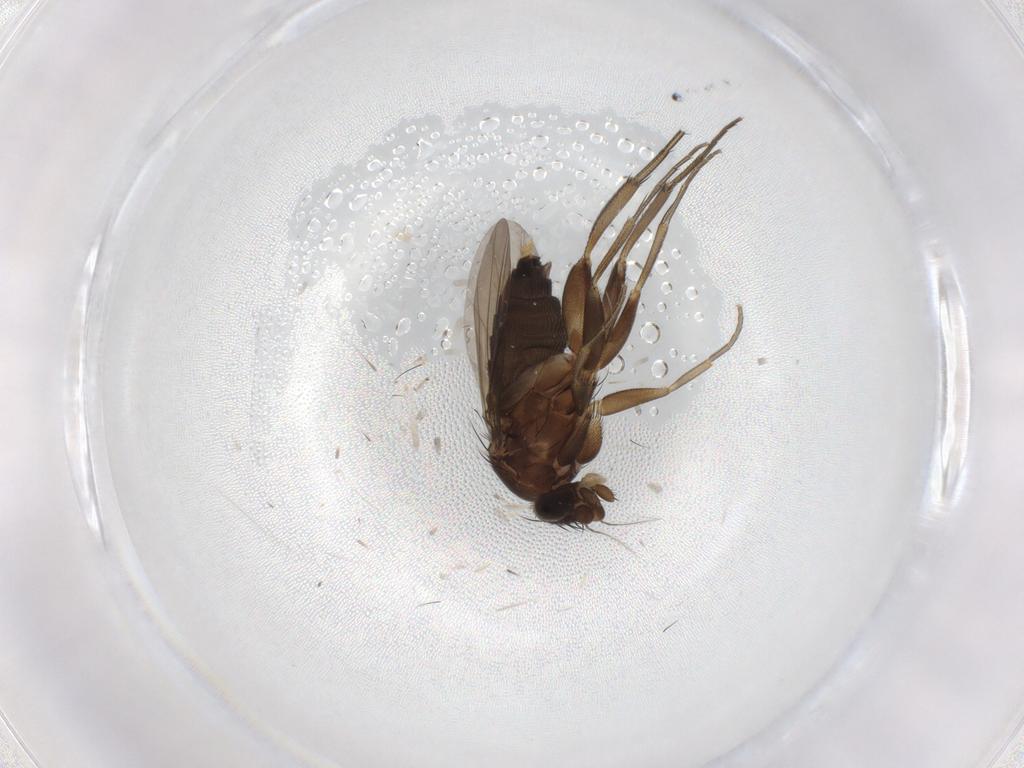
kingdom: Animalia
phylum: Arthropoda
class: Insecta
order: Diptera
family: Phoridae
